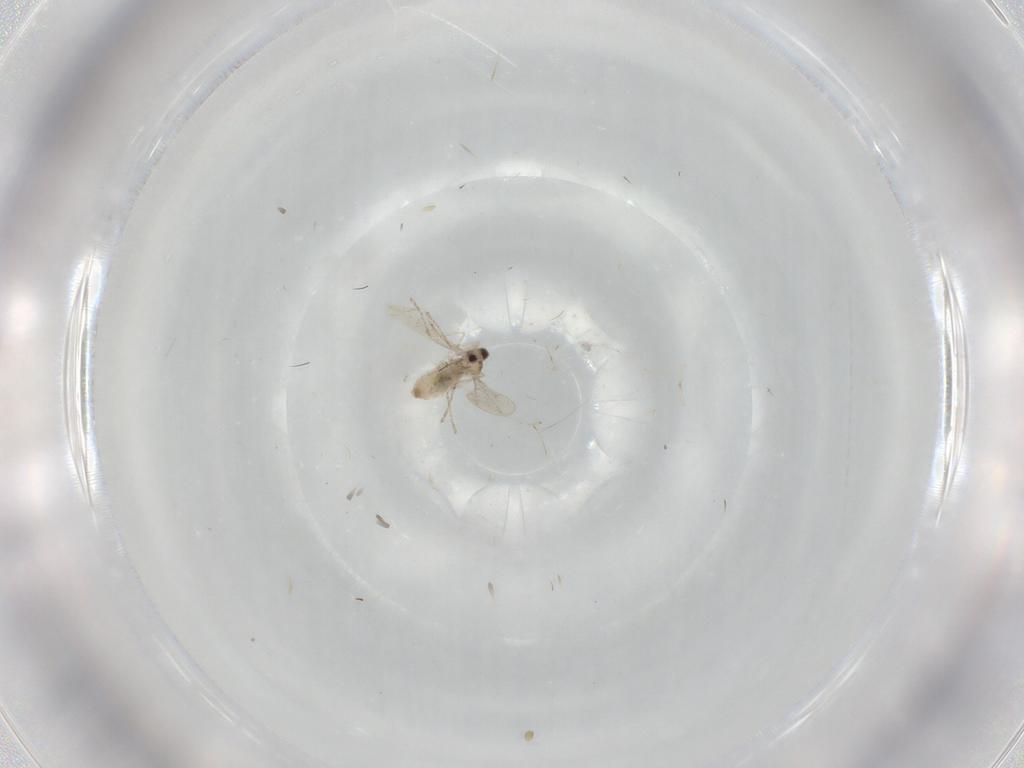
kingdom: Animalia
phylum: Arthropoda
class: Insecta
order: Diptera
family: Cecidomyiidae
